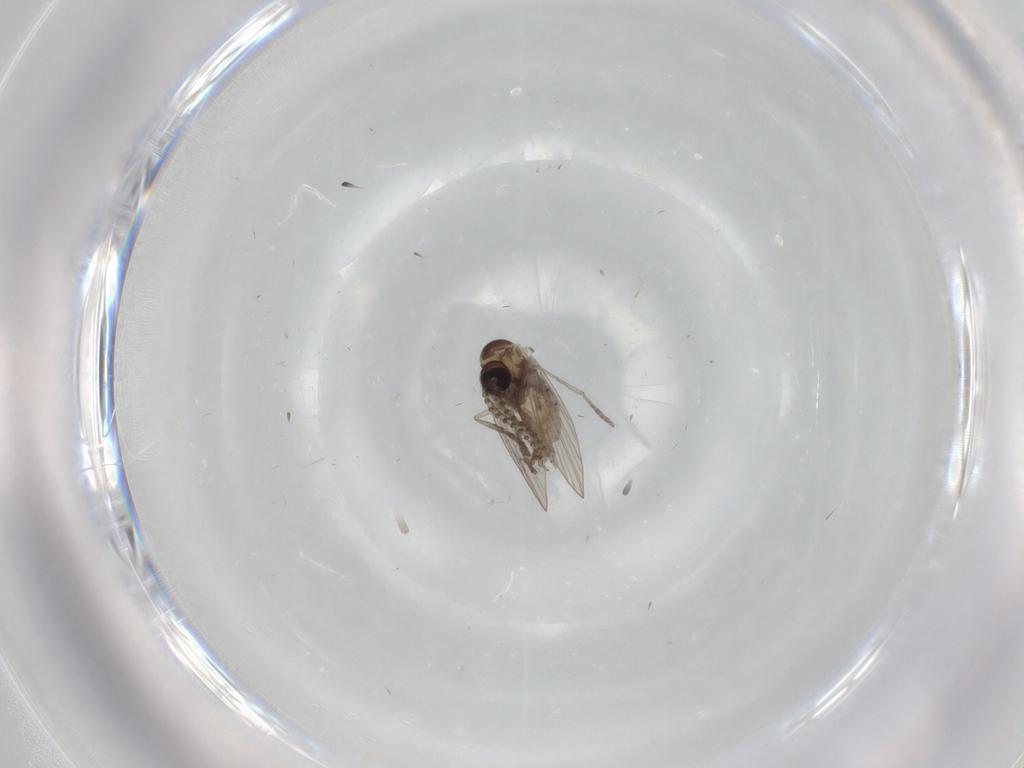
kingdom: Animalia
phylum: Arthropoda
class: Insecta
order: Diptera
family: Psychodidae
